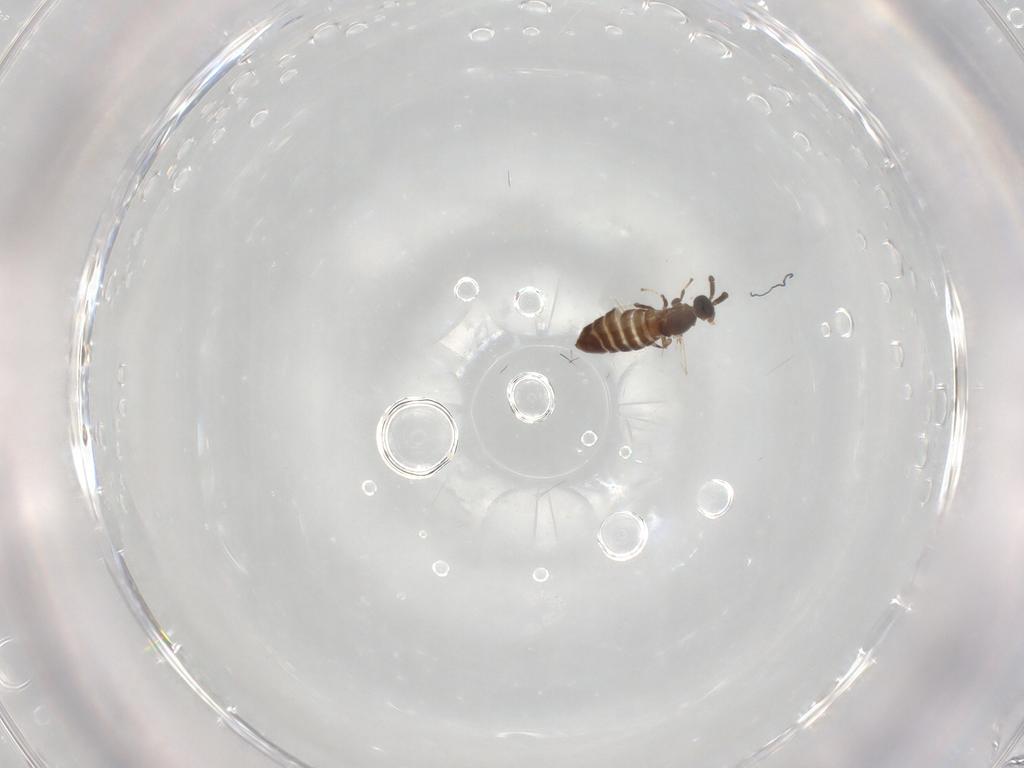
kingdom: Animalia
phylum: Arthropoda
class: Insecta
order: Diptera
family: Scatopsidae
